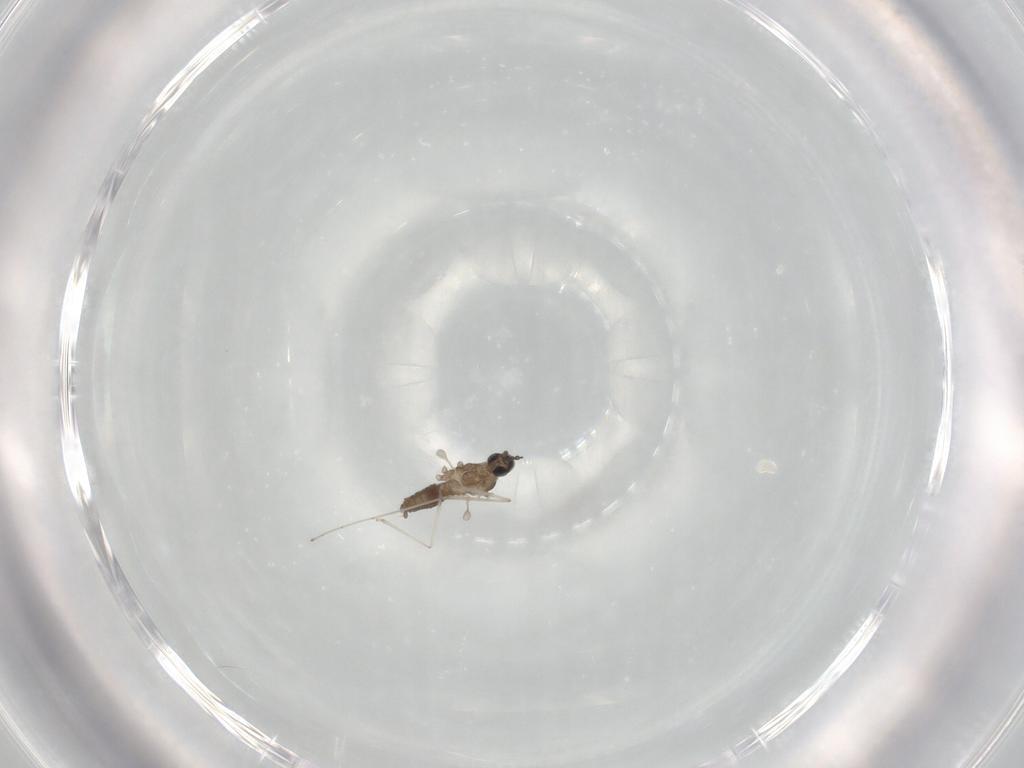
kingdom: Animalia
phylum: Arthropoda
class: Insecta
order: Diptera
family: Cecidomyiidae
